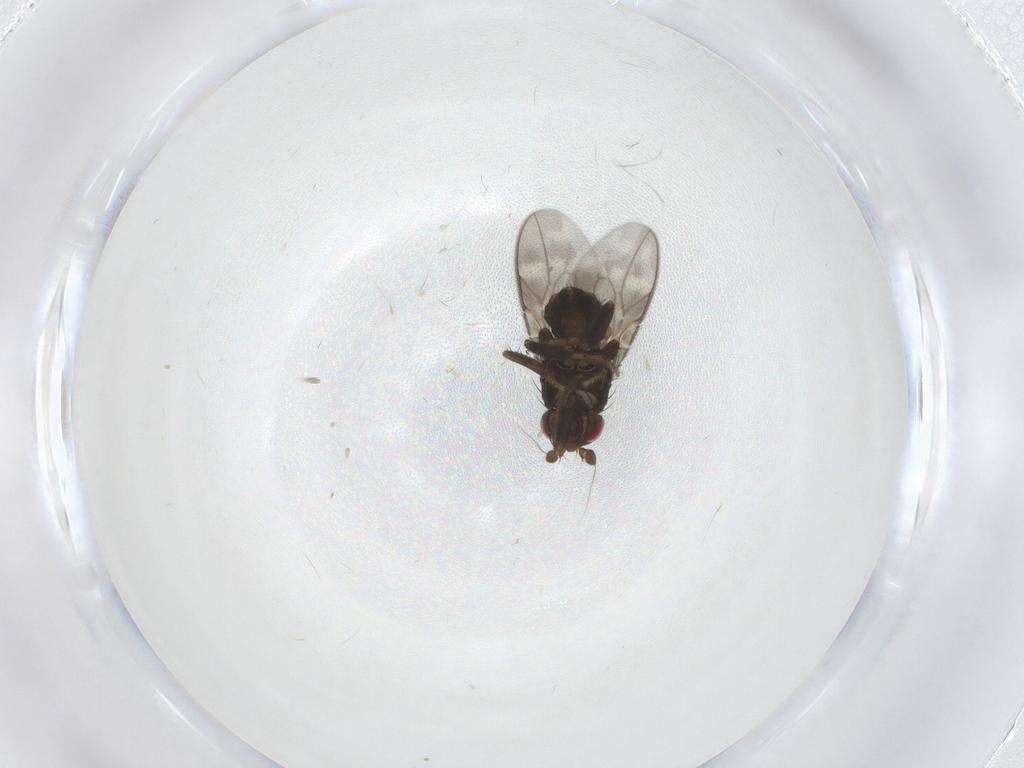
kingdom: Animalia
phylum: Arthropoda
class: Insecta
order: Diptera
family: Sphaeroceridae
